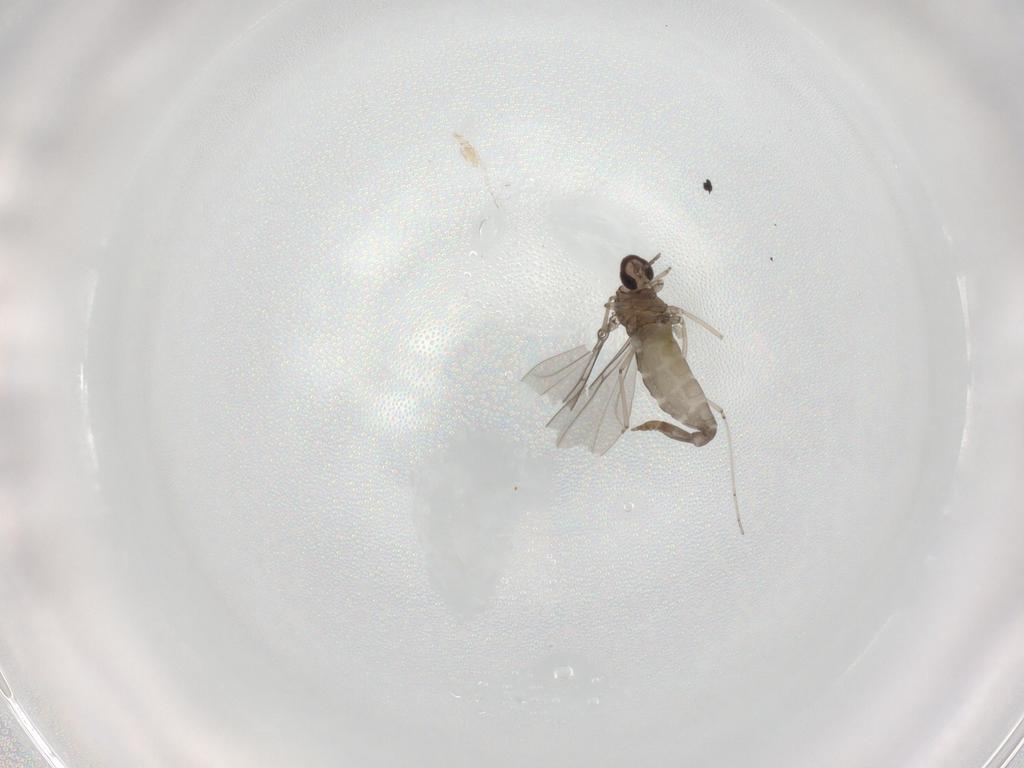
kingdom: Animalia
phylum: Arthropoda
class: Insecta
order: Diptera
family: Cecidomyiidae
